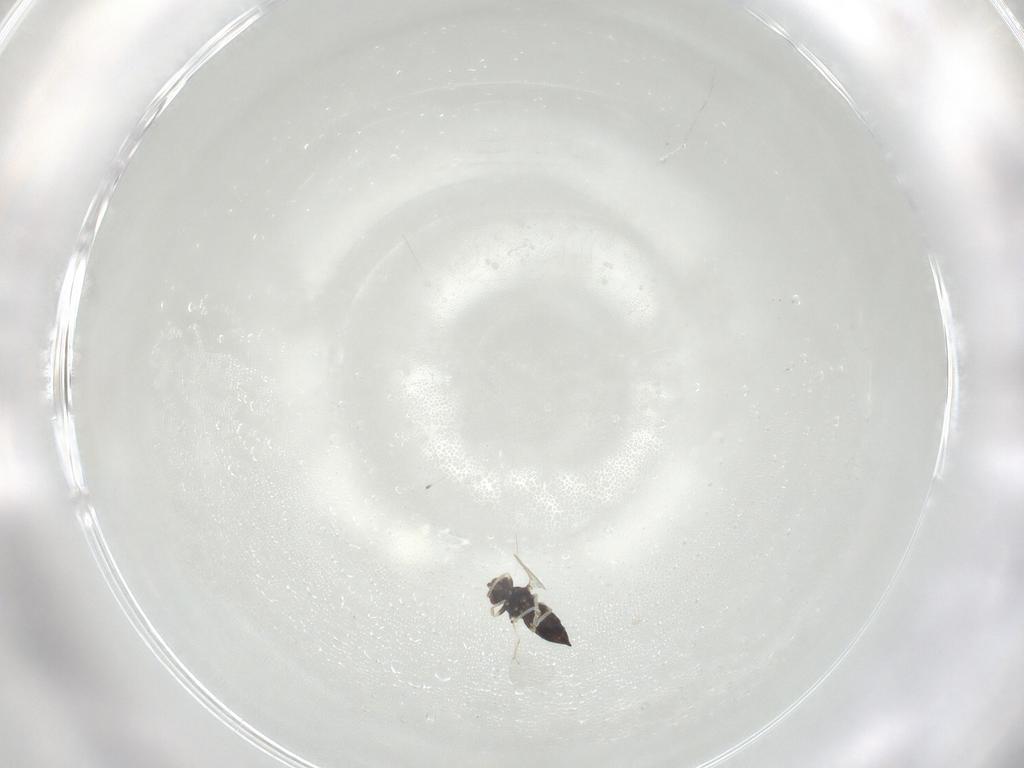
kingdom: Animalia
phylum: Arthropoda
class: Insecta
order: Hymenoptera
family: Eulophidae
